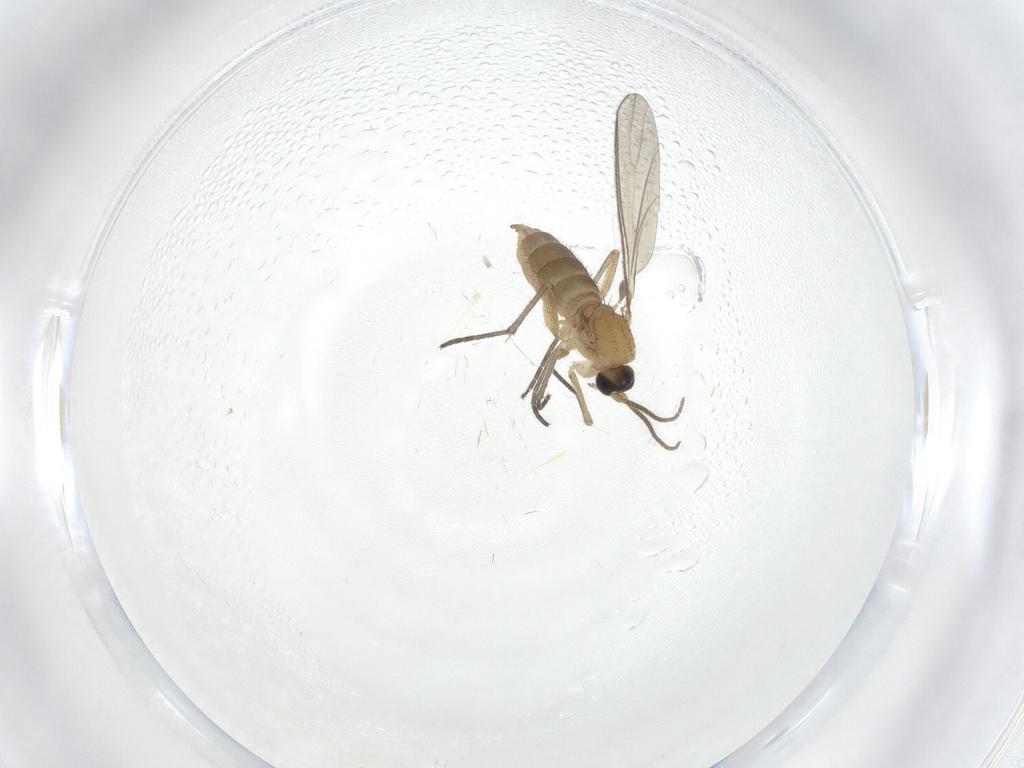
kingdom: Animalia
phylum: Arthropoda
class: Insecta
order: Diptera
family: Sciaridae
